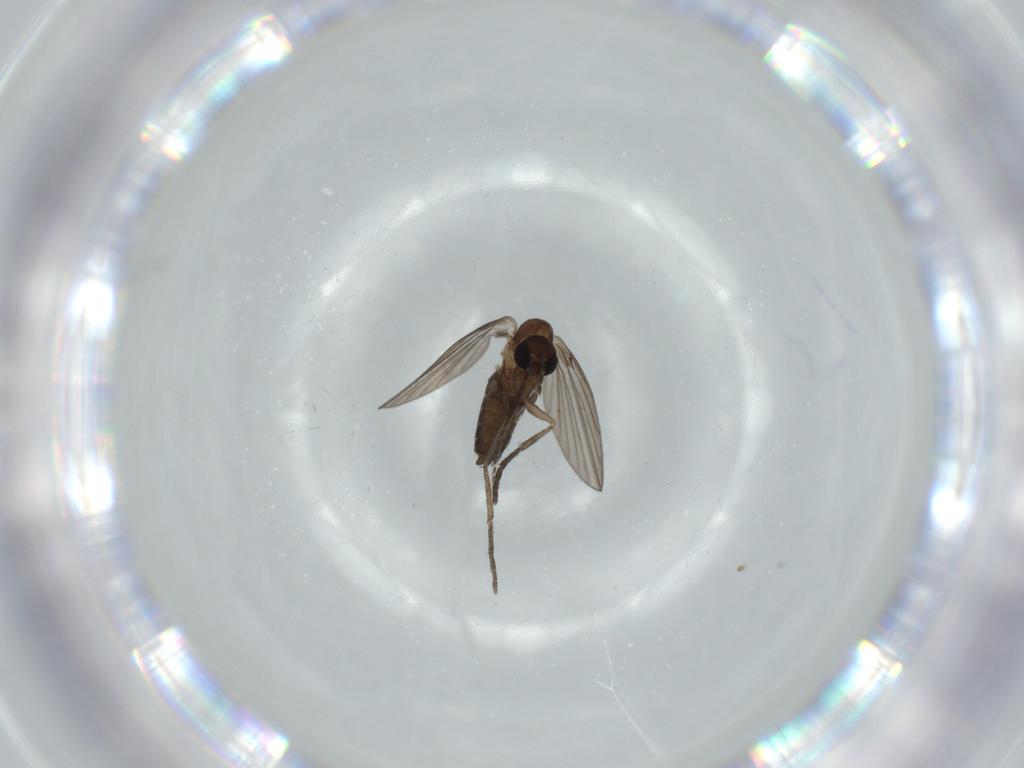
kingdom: Animalia
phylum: Arthropoda
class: Insecta
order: Diptera
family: Psychodidae
